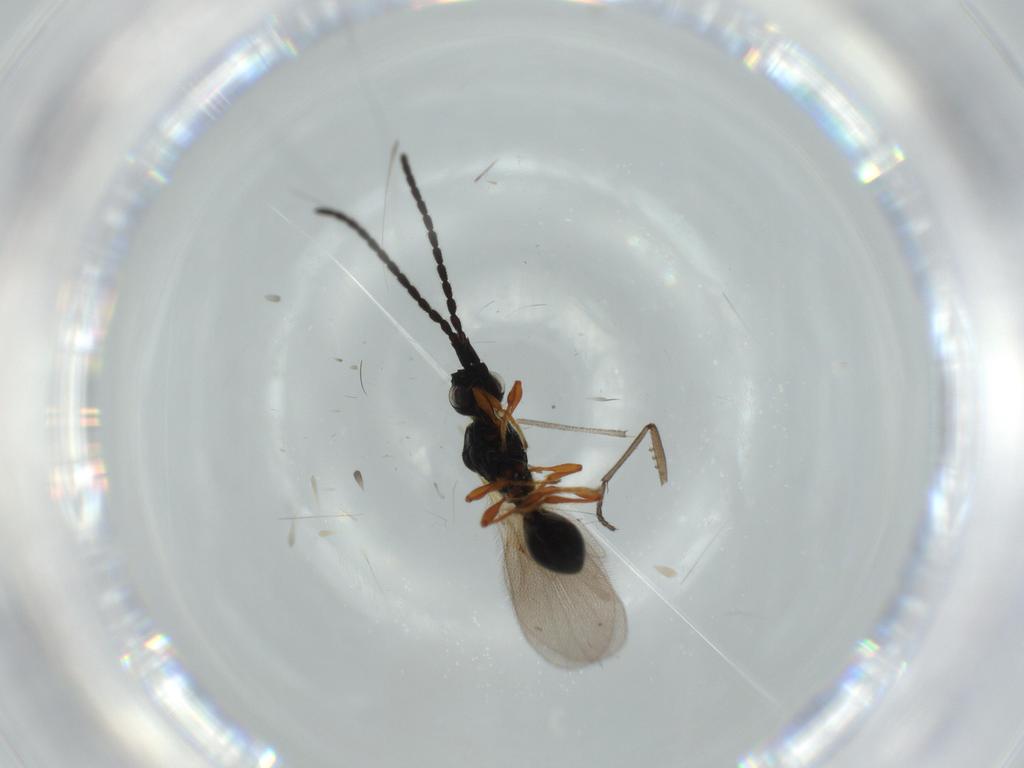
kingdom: Animalia
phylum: Arthropoda
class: Insecta
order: Hymenoptera
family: Diapriidae
